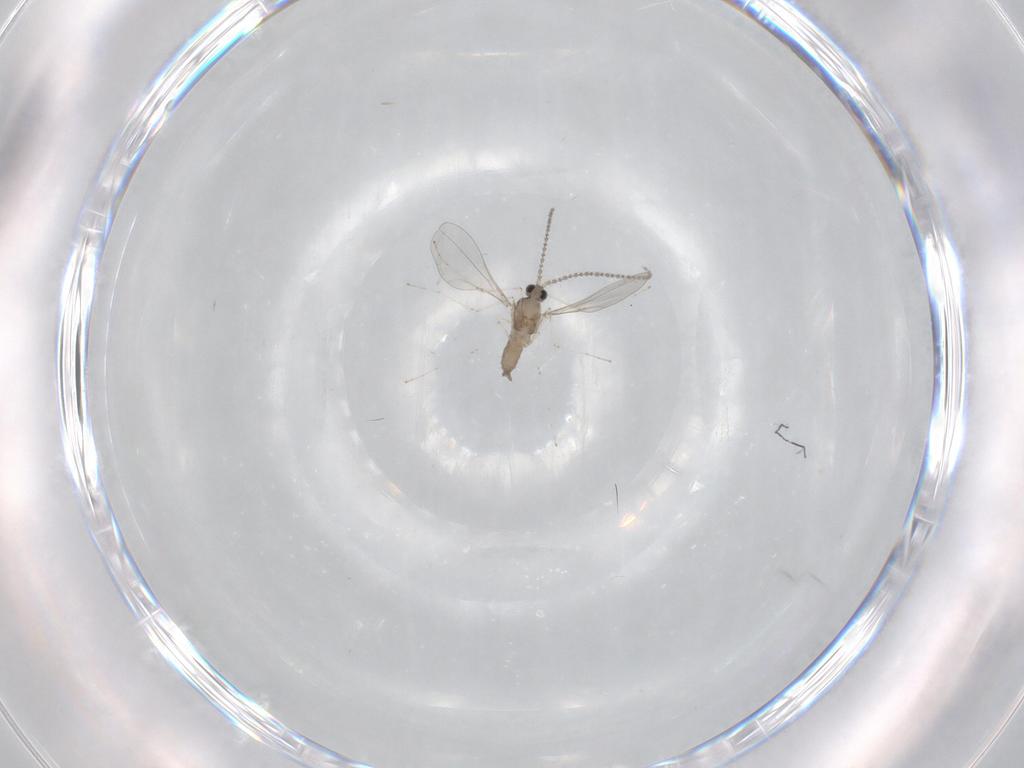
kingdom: Animalia
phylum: Arthropoda
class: Insecta
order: Diptera
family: Cecidomyiidae
